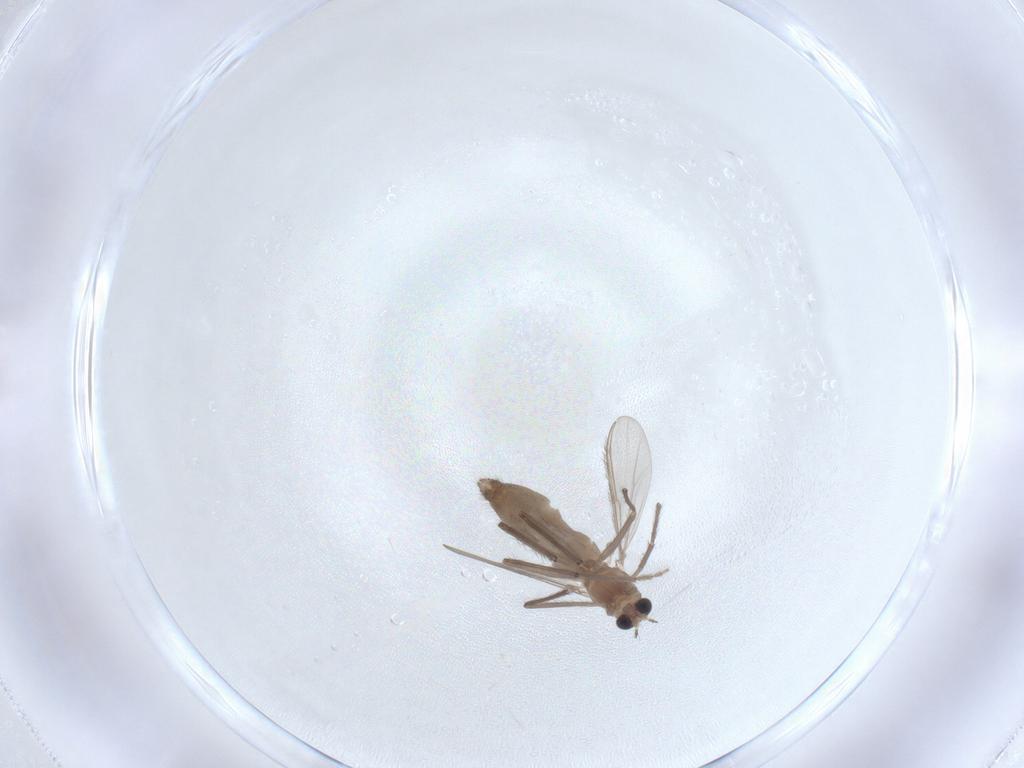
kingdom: Animalia
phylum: Arthropoda
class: Insecta
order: Diptera
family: Chironomidae
